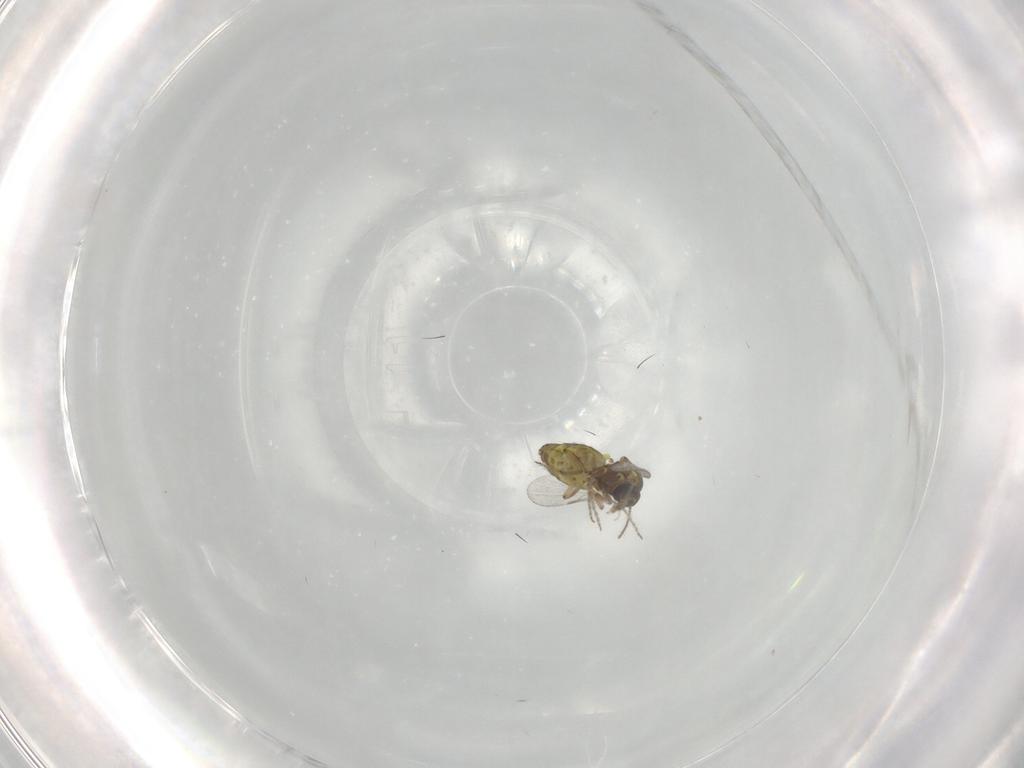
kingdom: Animalia
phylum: Arthropoda
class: Insecta
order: Diptera
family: Ceratopogonidae
